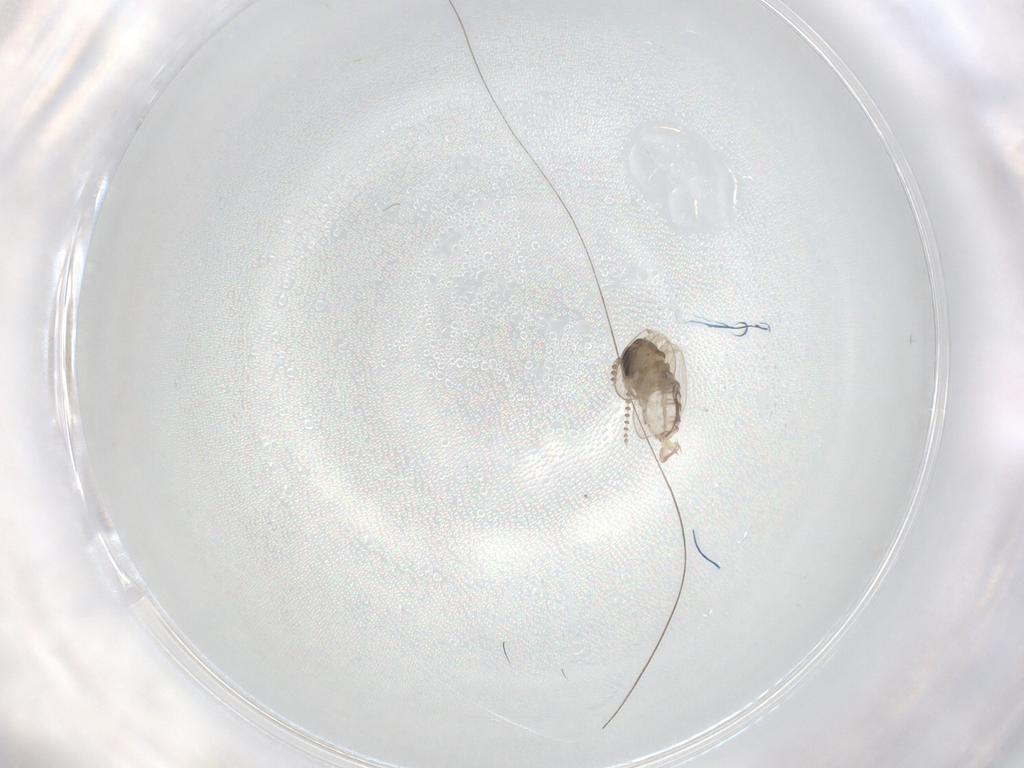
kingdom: Animalia
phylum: Arthropoda
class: Insecta
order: Diptera
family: Psychodidae
